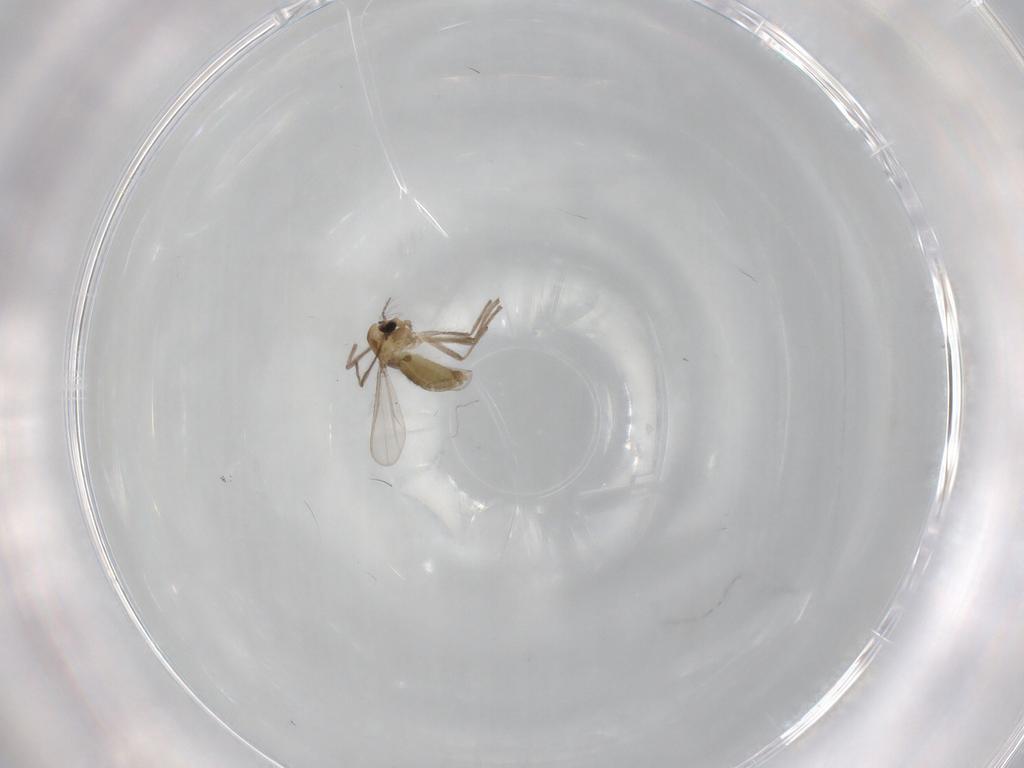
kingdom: Animalia
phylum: Arthropoda
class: Insecta
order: Diptera
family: Chironomidae
